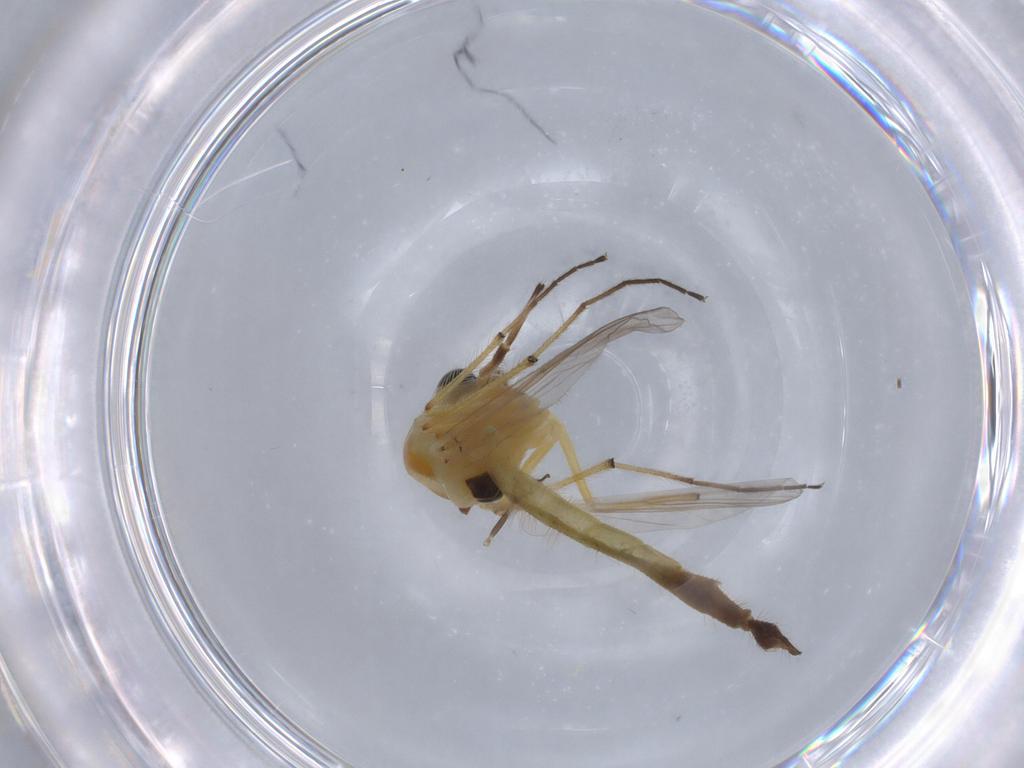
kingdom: Animalia
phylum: Arthropoda
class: Insecta
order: Diptera
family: Chironomidae
